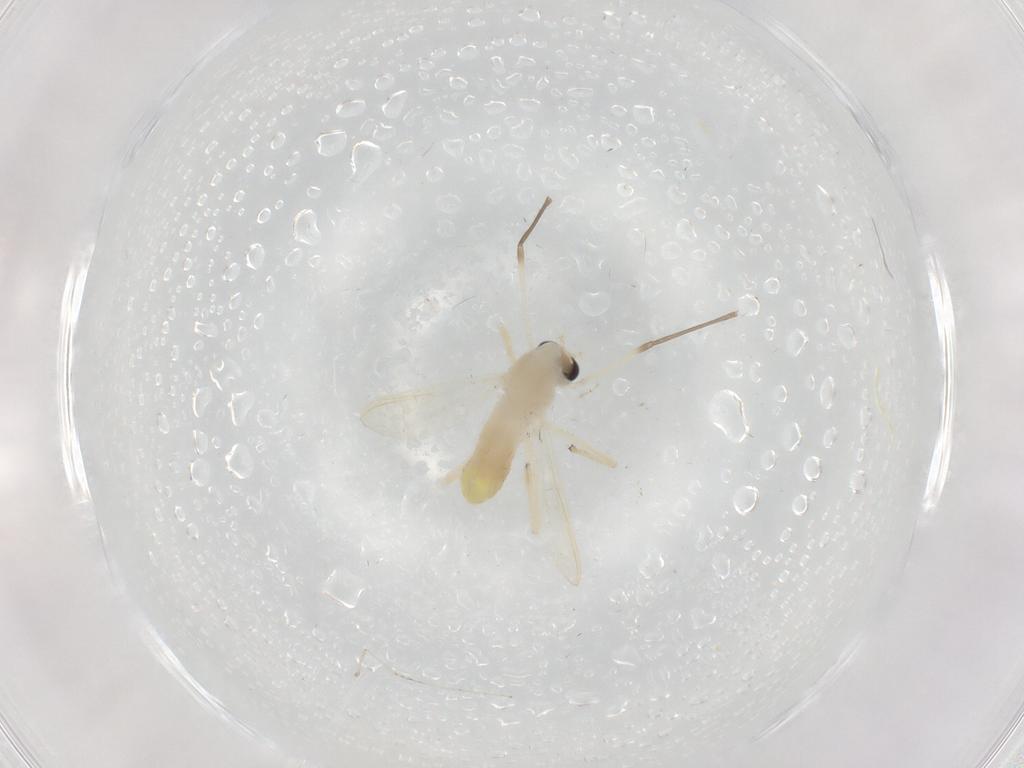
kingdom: Animalia
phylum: Arthropoda
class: Insecta
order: Diptera
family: Chironomidae
